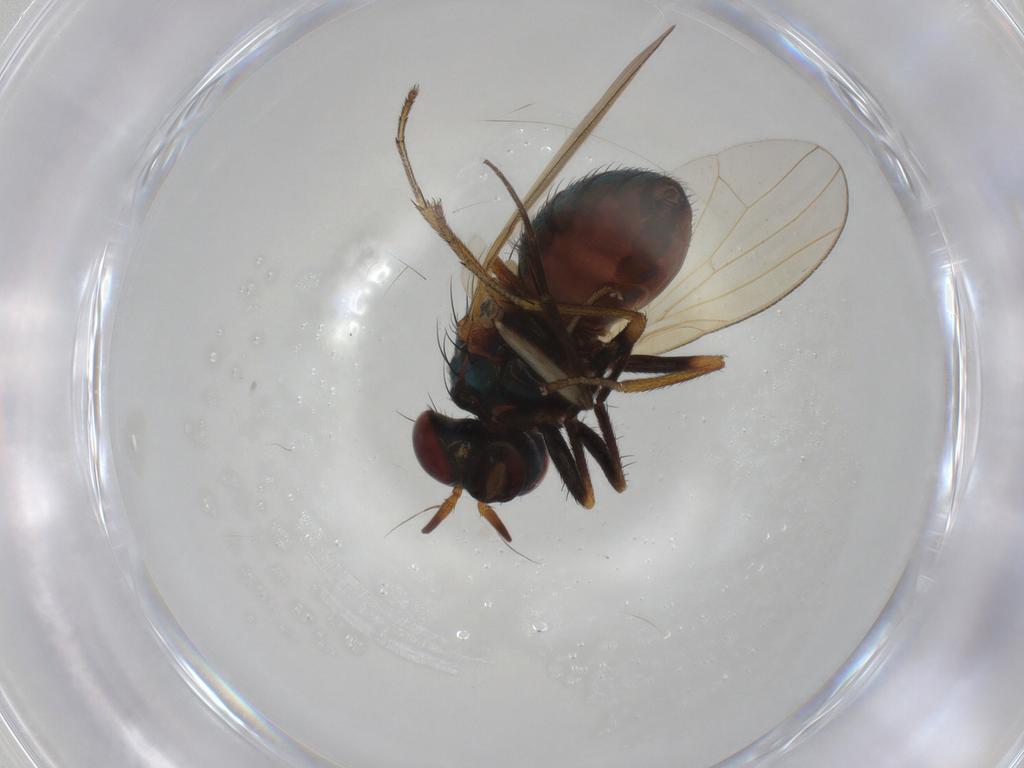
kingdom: Animalia
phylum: Arthropoda
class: Insecta
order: Diptera
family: Lauxaniidae
